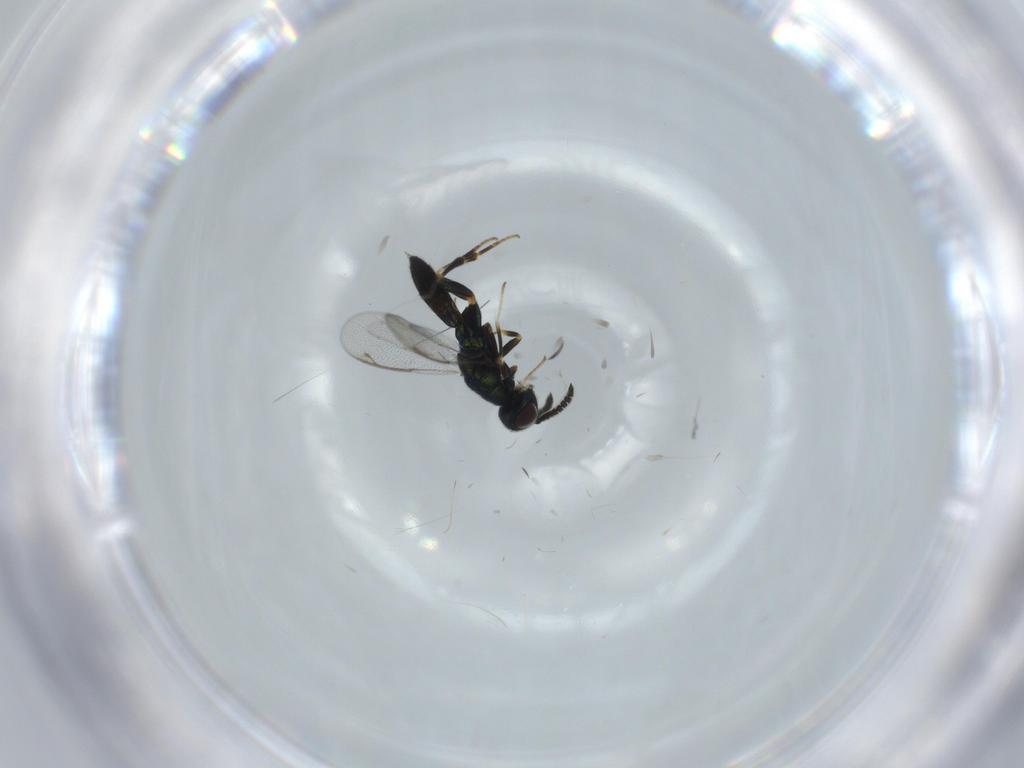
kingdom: Animalia
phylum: Arthropoda
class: Insecta
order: Hymenoptera
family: Cleonyminae
